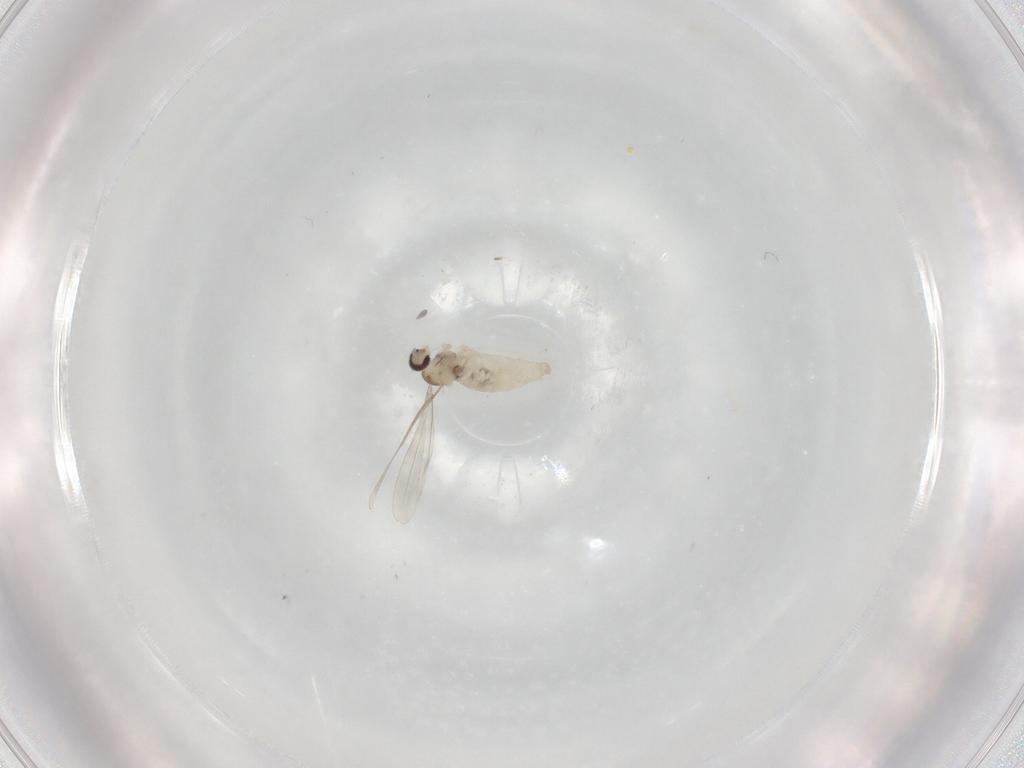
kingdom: Animalia
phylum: Arthropoda
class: Insecta
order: Diptera
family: Cecidomyiidae
